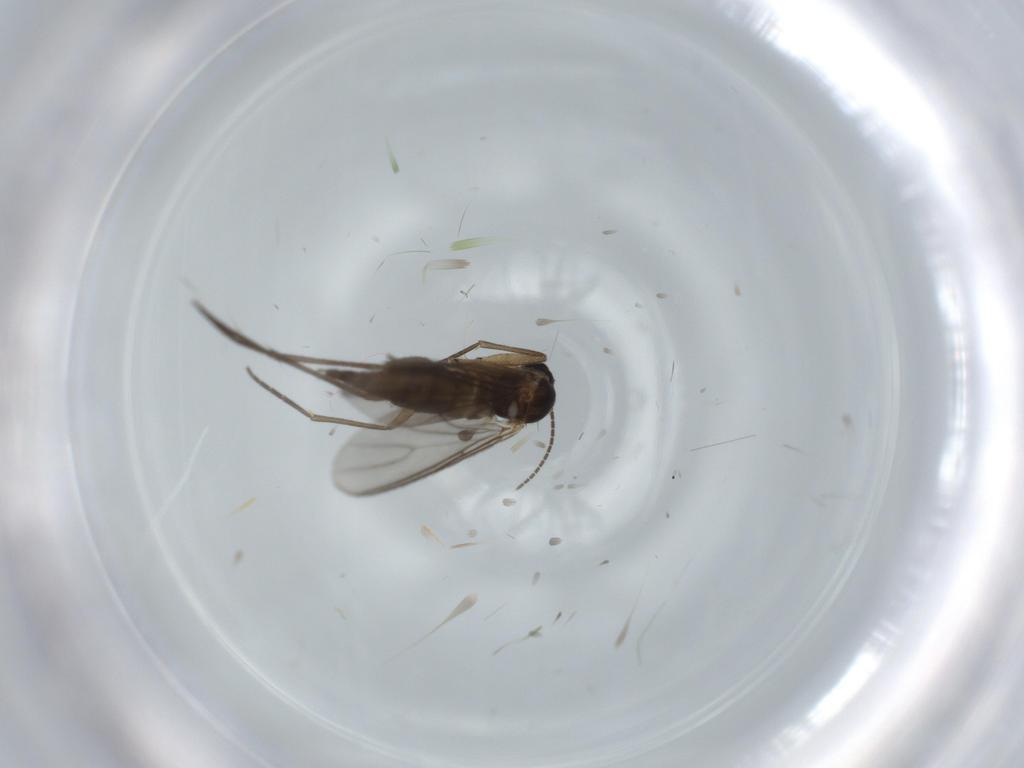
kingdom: Animalia
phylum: Arthropoda
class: Insecta
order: Diptera
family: Sciaridae
